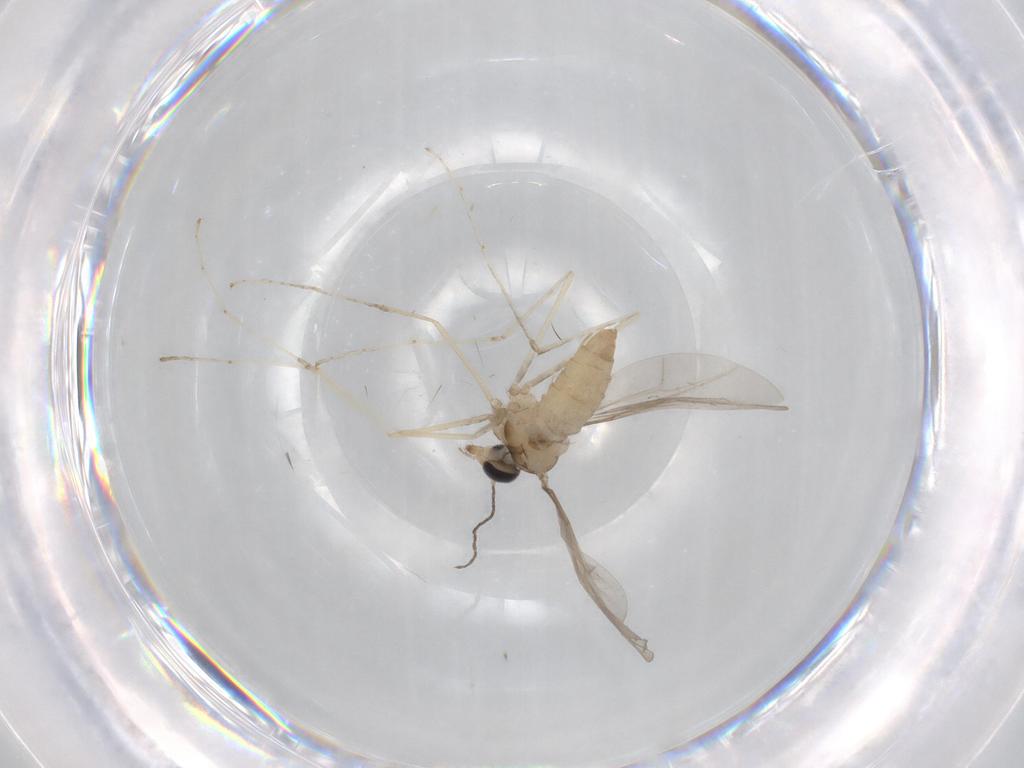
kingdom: Animalia
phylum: Arthropoda
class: Insecta
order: Diptera
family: Cecidomyiidae
